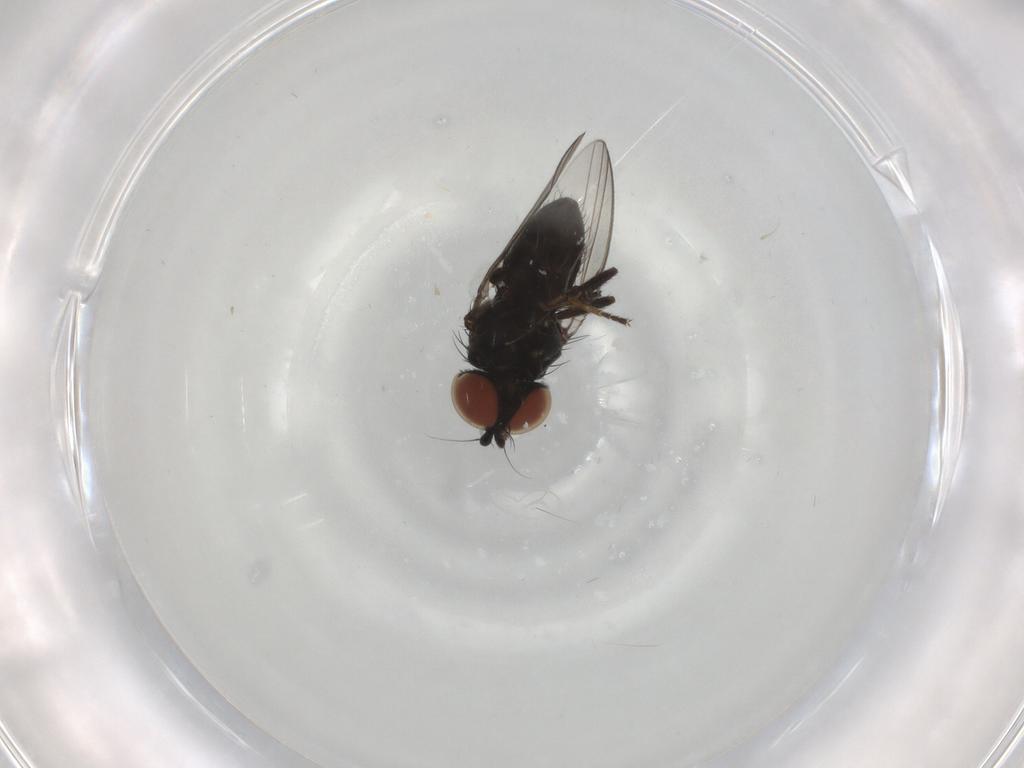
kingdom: Animalia
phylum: Arthropoda
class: Insecta
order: Diptera
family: Milichiidae
